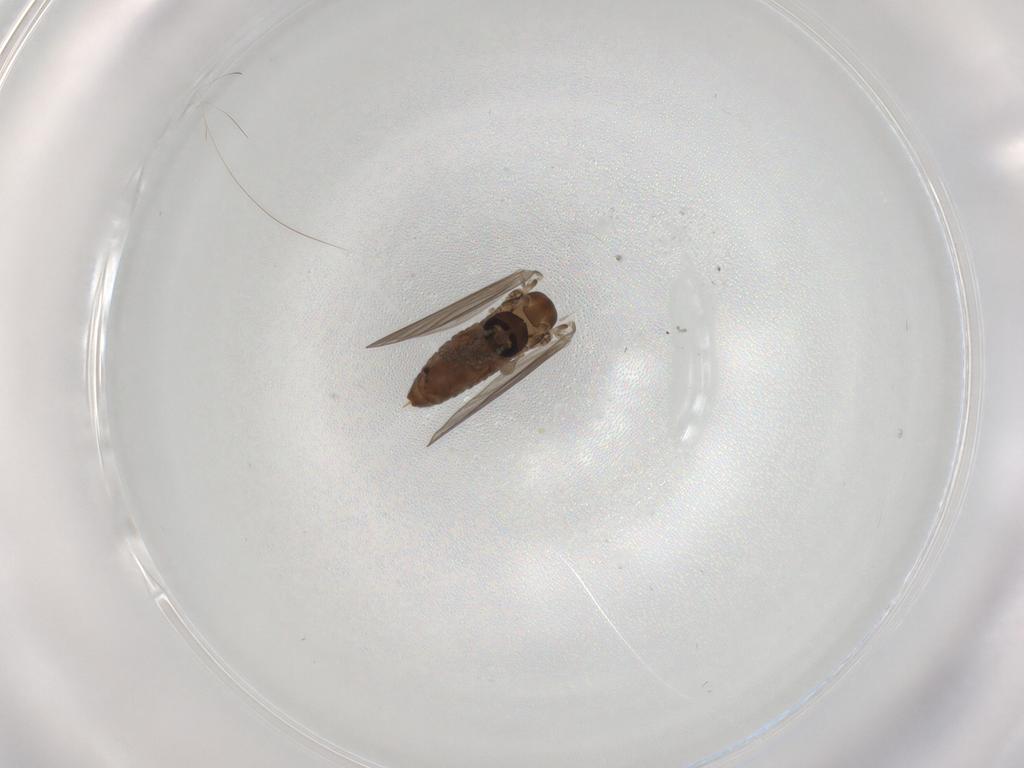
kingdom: Animalia
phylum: Arthropoda
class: Insecta
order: Diptera
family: Psychodidae
